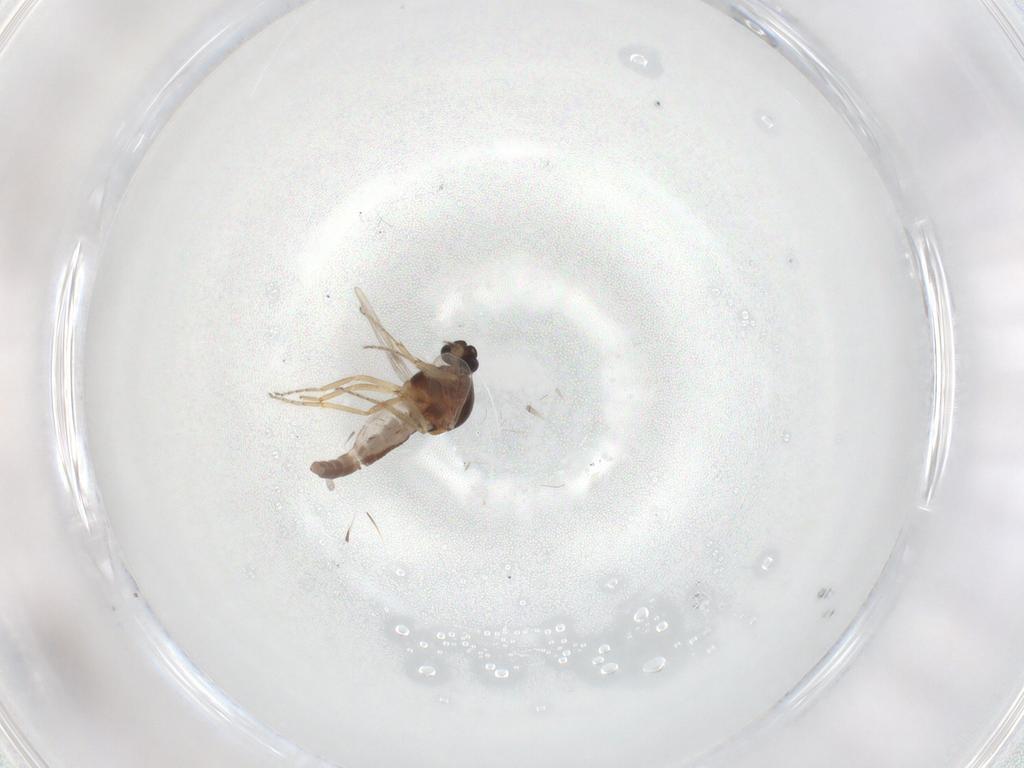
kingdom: Animalia
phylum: Arthropoda
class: Insecta
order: Diptera
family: Ceratopogonidae
